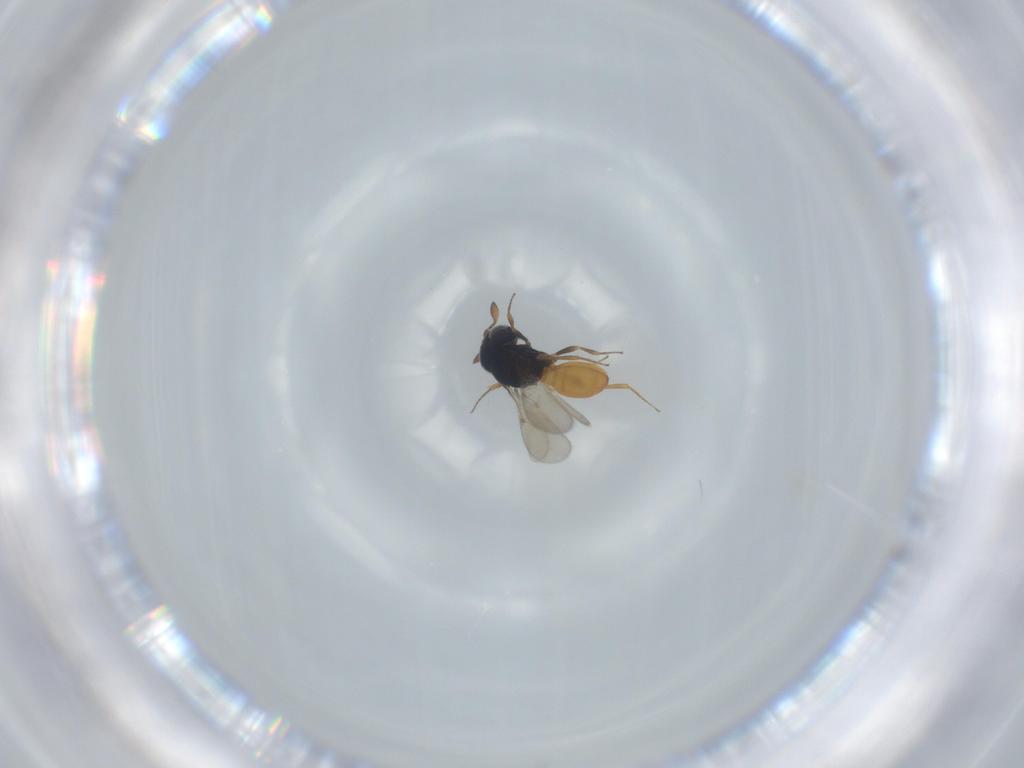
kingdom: Animalia
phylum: Arthropoda
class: Insecta
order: Hymenoptera
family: Scelionidae
